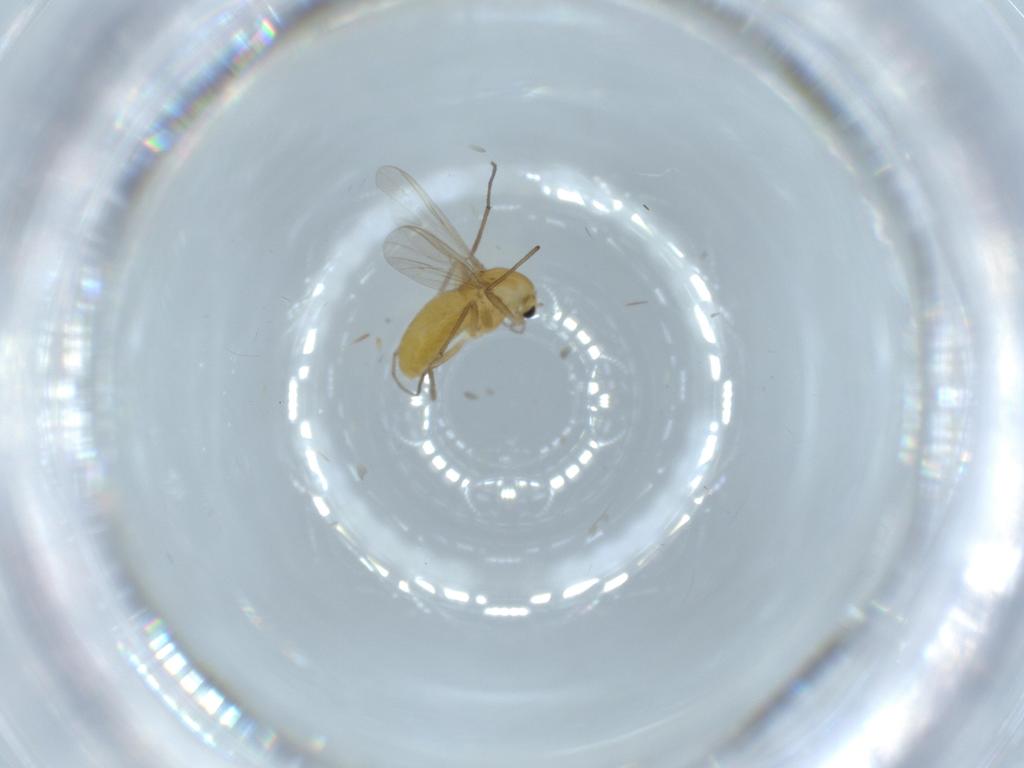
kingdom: Animalia
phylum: Arthropoda
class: Insecta
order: Diptera
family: Chironomidae
